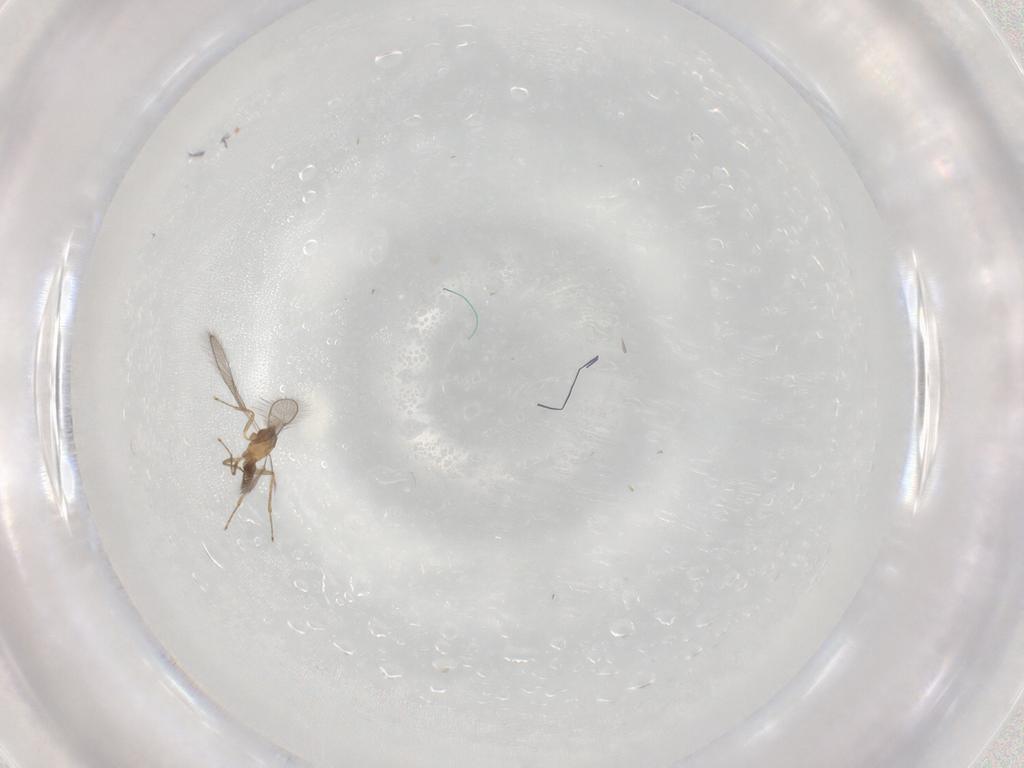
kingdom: Animalia
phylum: Arthropoda
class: Insecta
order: Hymenoptera
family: Mymaridae
